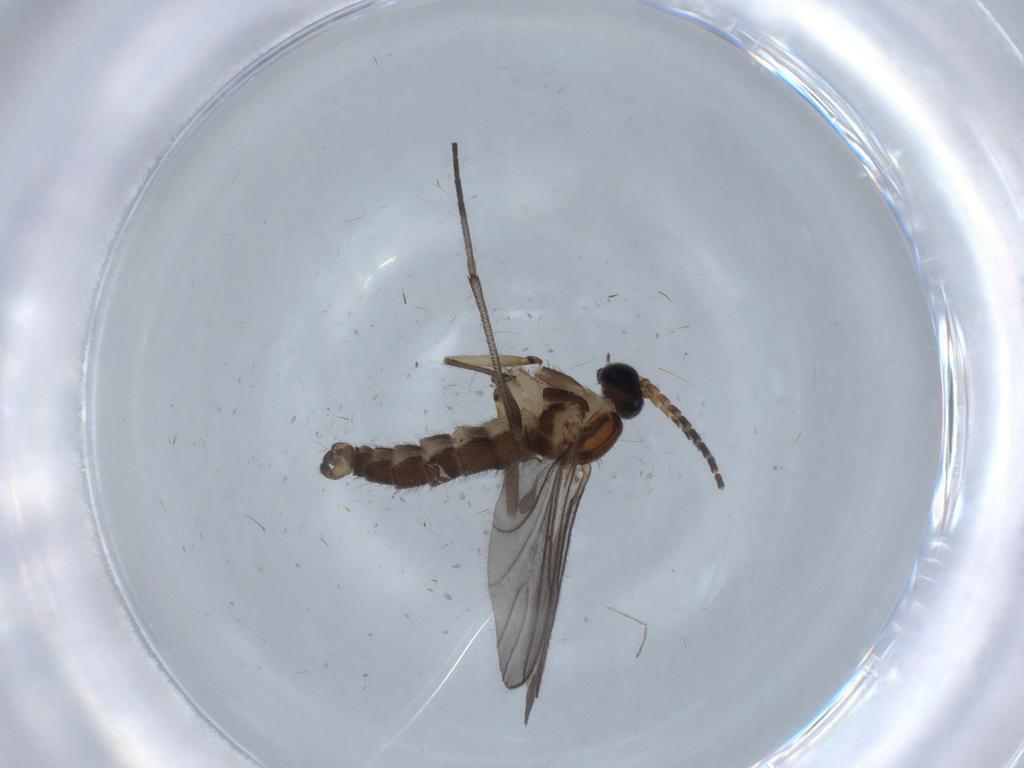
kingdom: Animalia
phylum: Arthropoda
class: Insecta
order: Diptera
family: Sciaridae
